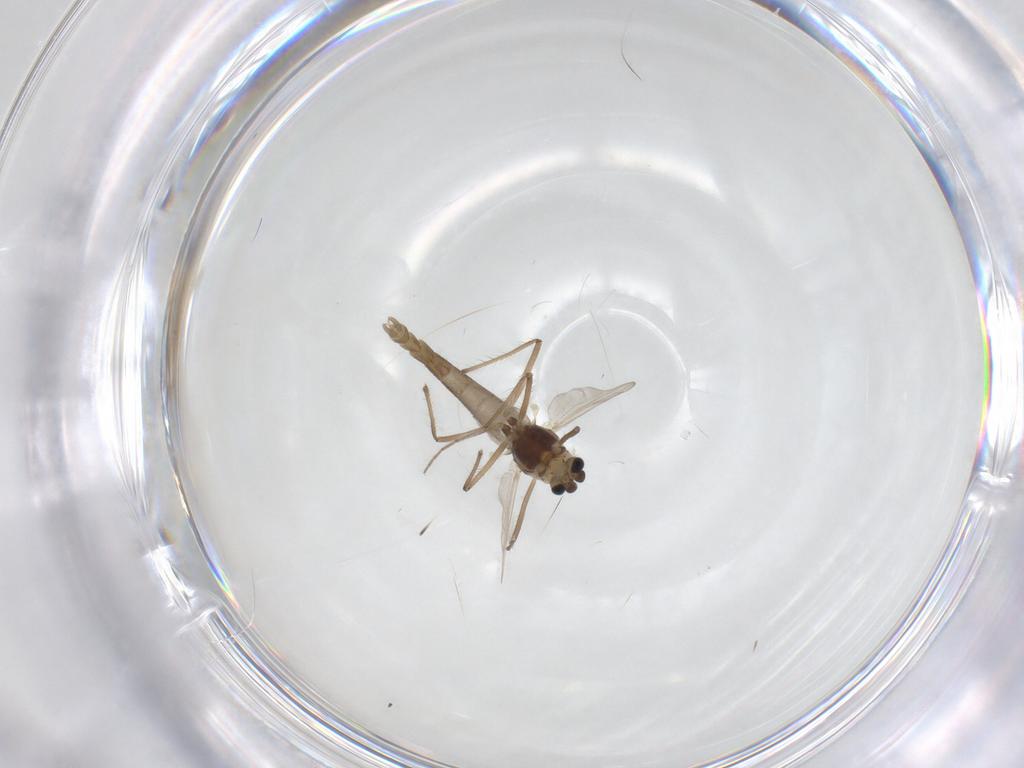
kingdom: Animalia
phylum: Arthropoda
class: Insecta
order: Diptera
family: Chironomidae
